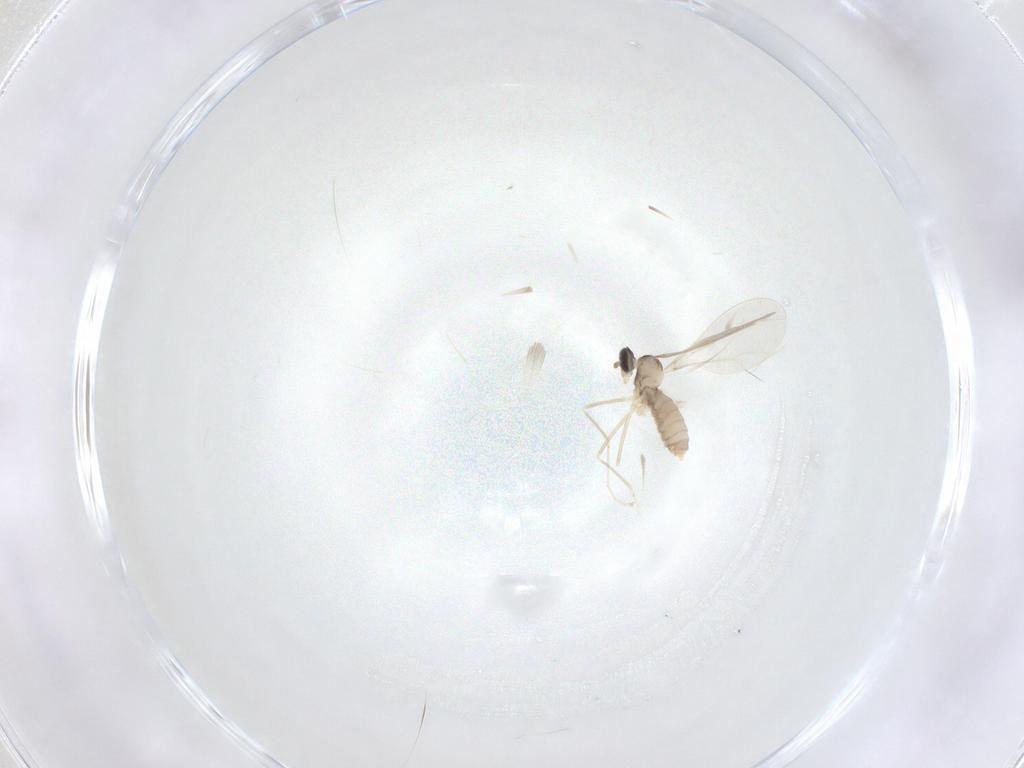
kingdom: Animalia
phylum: Arthropoda
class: Insecta
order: Diptera
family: Cecidomyiidae
